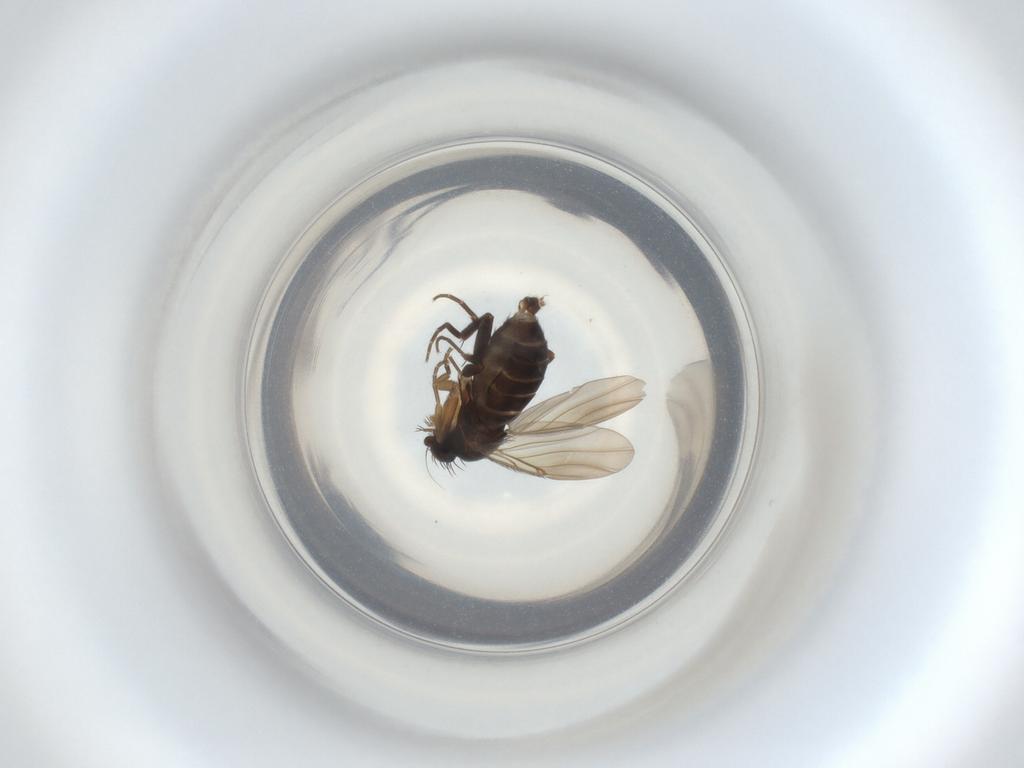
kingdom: Animalia
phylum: Arthropoda
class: Insecta
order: Diptera
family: Phoridae
